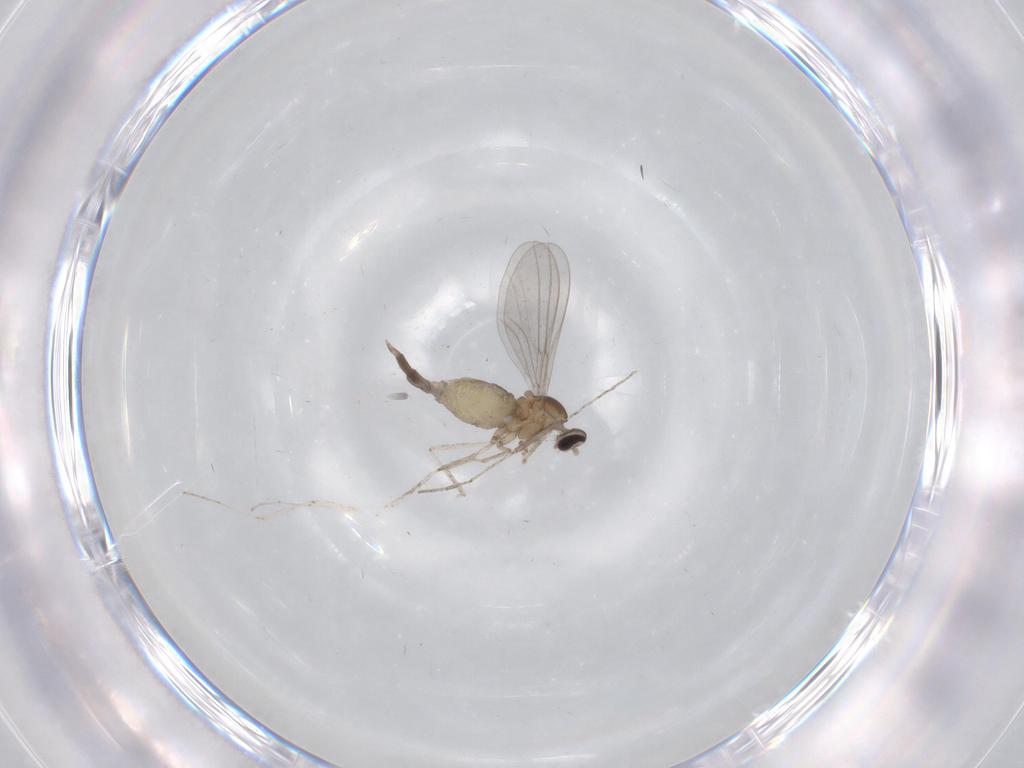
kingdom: Animalia
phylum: Arthropoda
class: Insecta
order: Diptera
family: Cecidomyiidae
